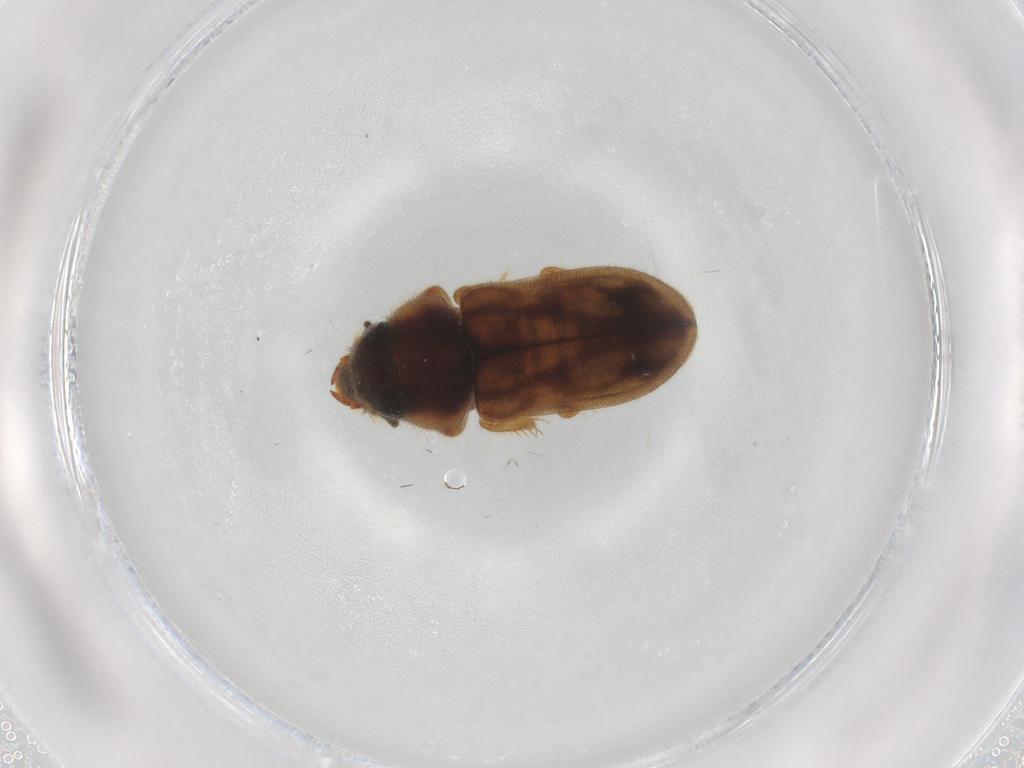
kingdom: Animalia
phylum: Arthropoda
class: Insecta
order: Coleoptera
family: Heteroceridae
